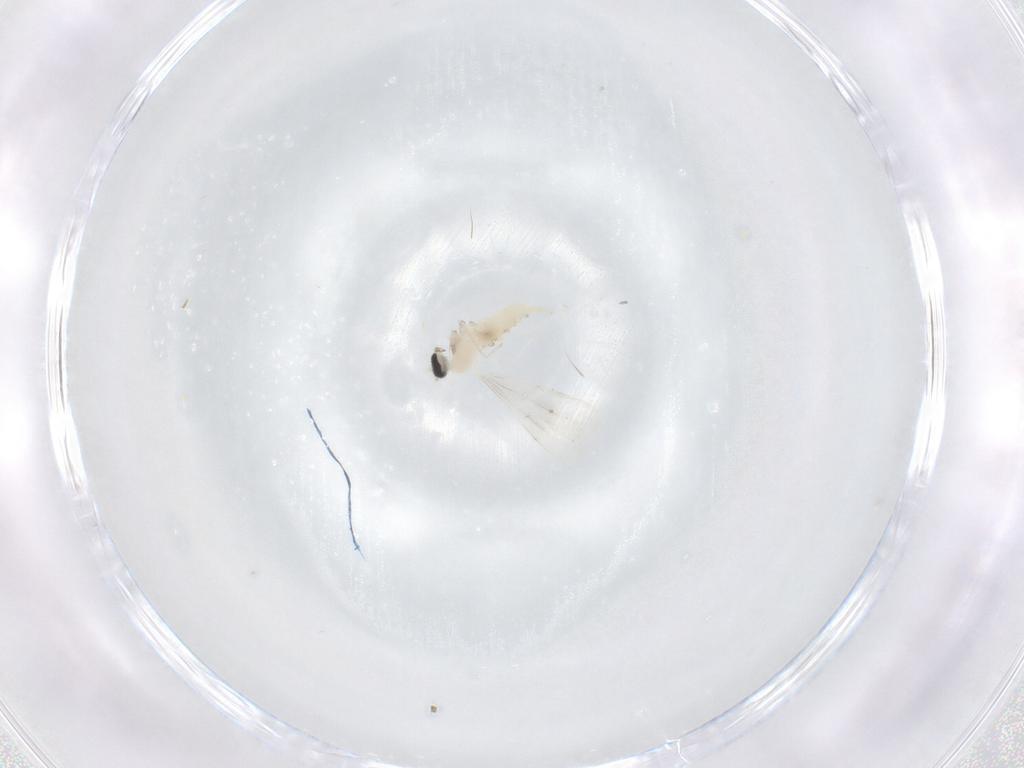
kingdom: Animalia
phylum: Arthropoda
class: Insecta
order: Diptera
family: Cecidomyiidae
